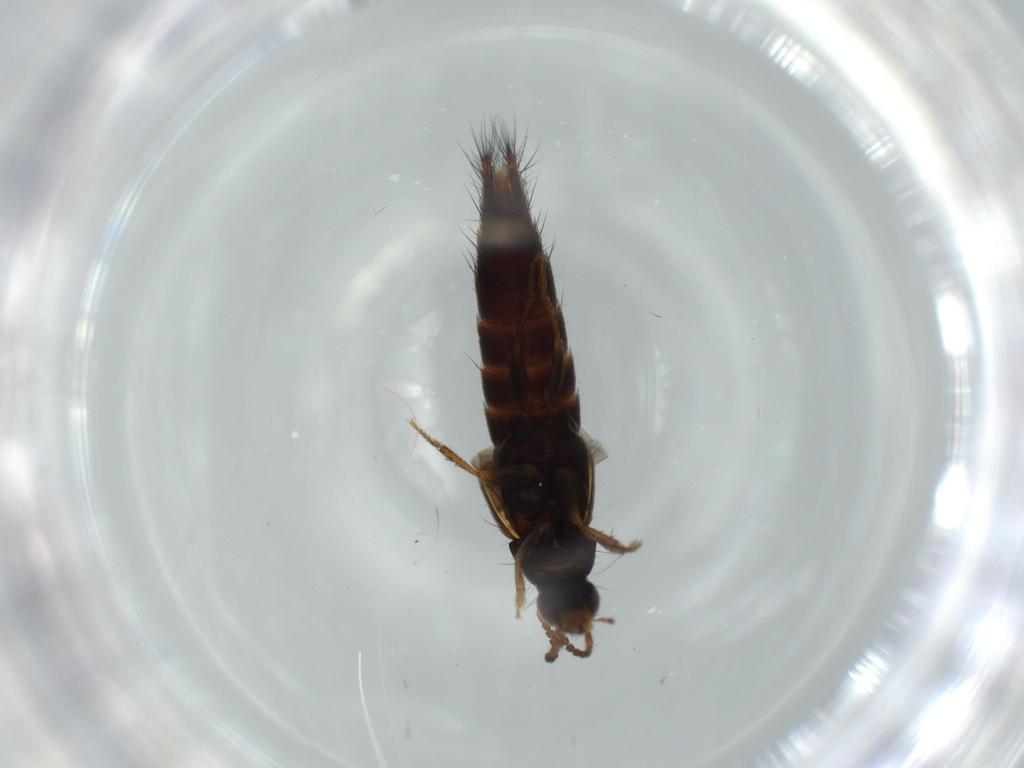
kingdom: Animalia
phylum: Arthropoda
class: Insecta
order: Coleoptera
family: Staphylinidae
